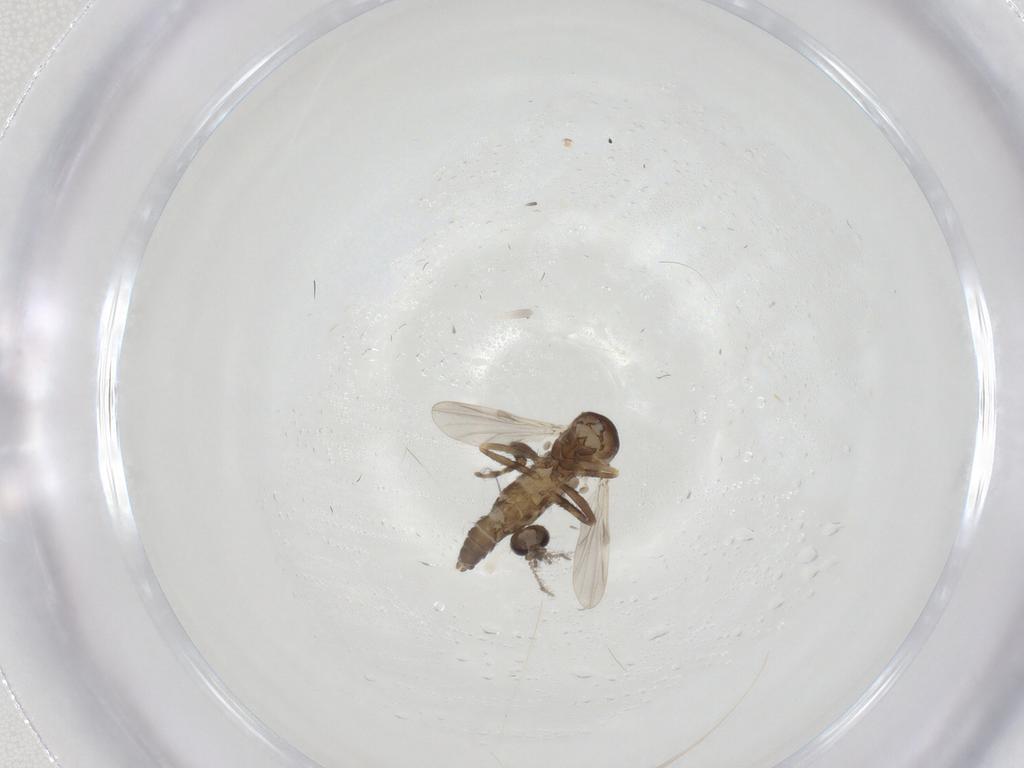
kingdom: Animalia
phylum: Arthropoda
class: Insecta
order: Diptera
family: Ceratopogonidae
